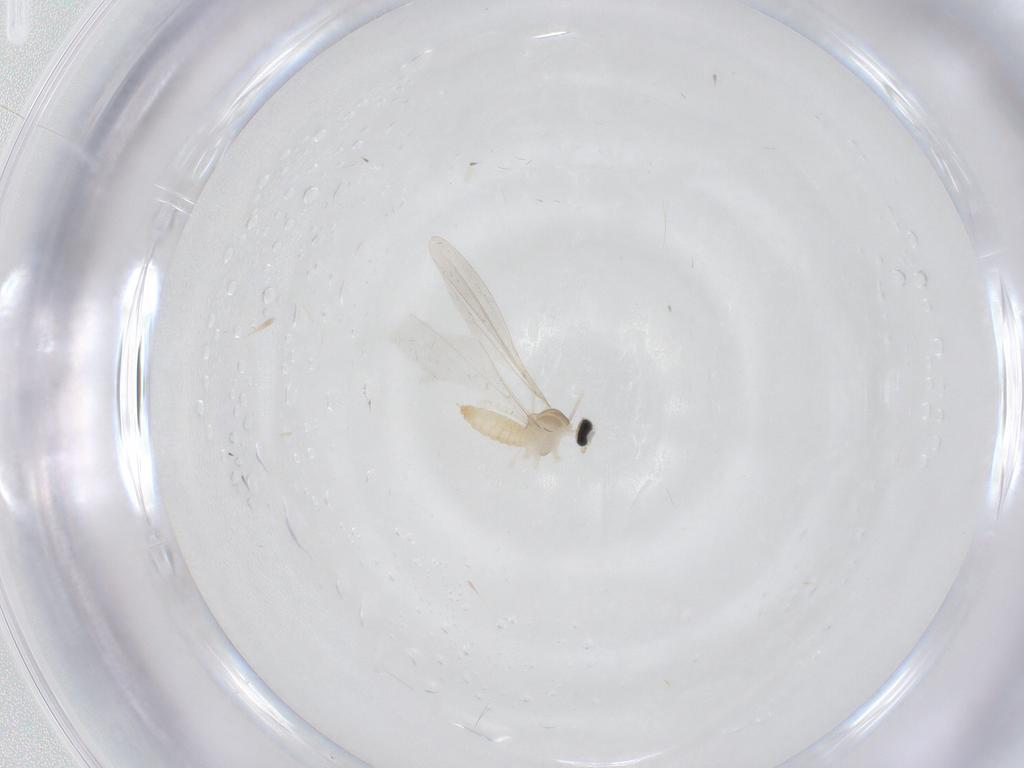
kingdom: Animalia
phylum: Arthropoda
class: Insecta
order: Diptera
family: Cecidomyiidae
